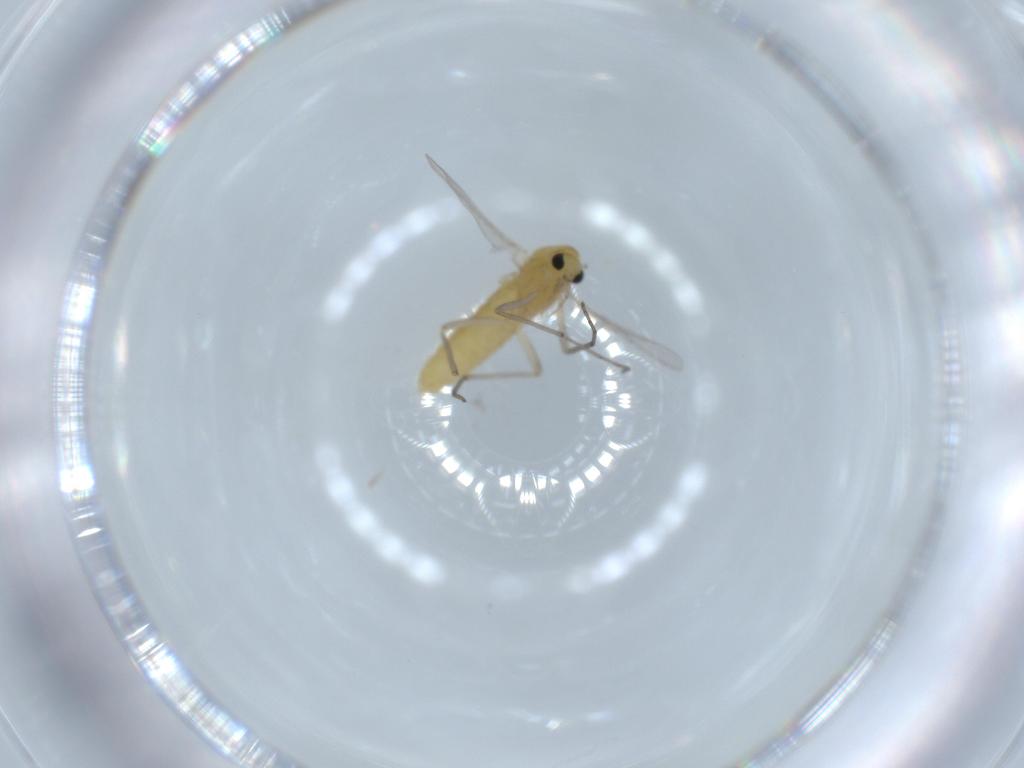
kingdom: Animalia
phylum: Arthropoda
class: Insecta
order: Diptera
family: Chironomidae
